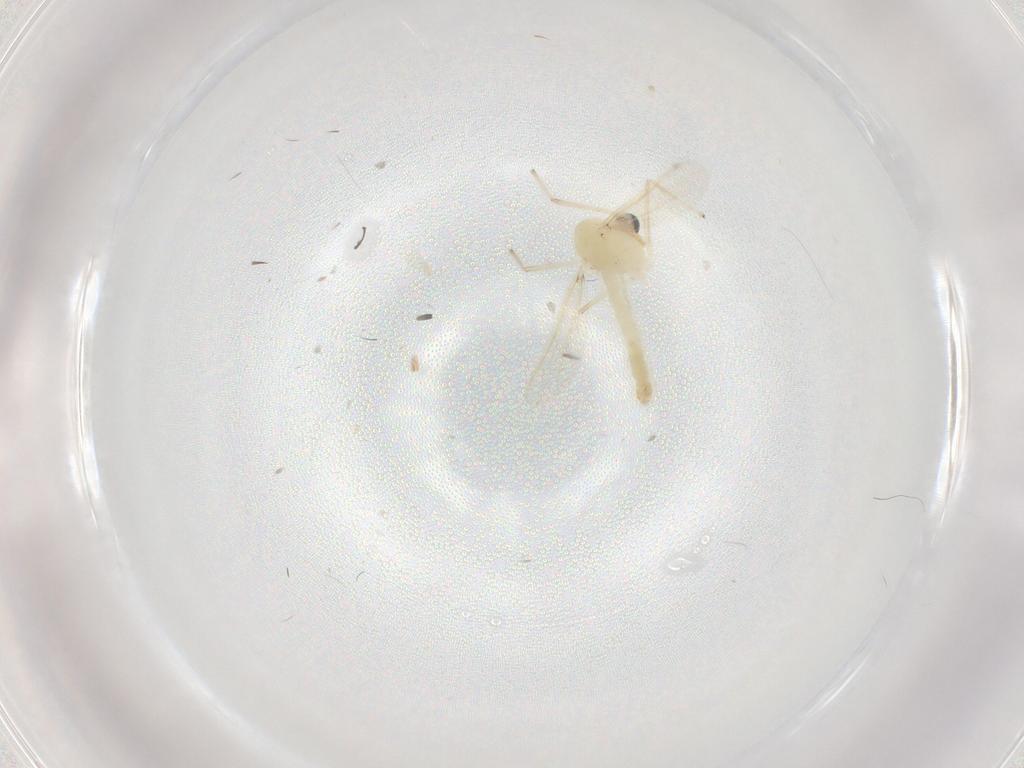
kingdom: Animalia
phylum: Arthropoda
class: Insecta
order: Diptera
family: Chironomidae
